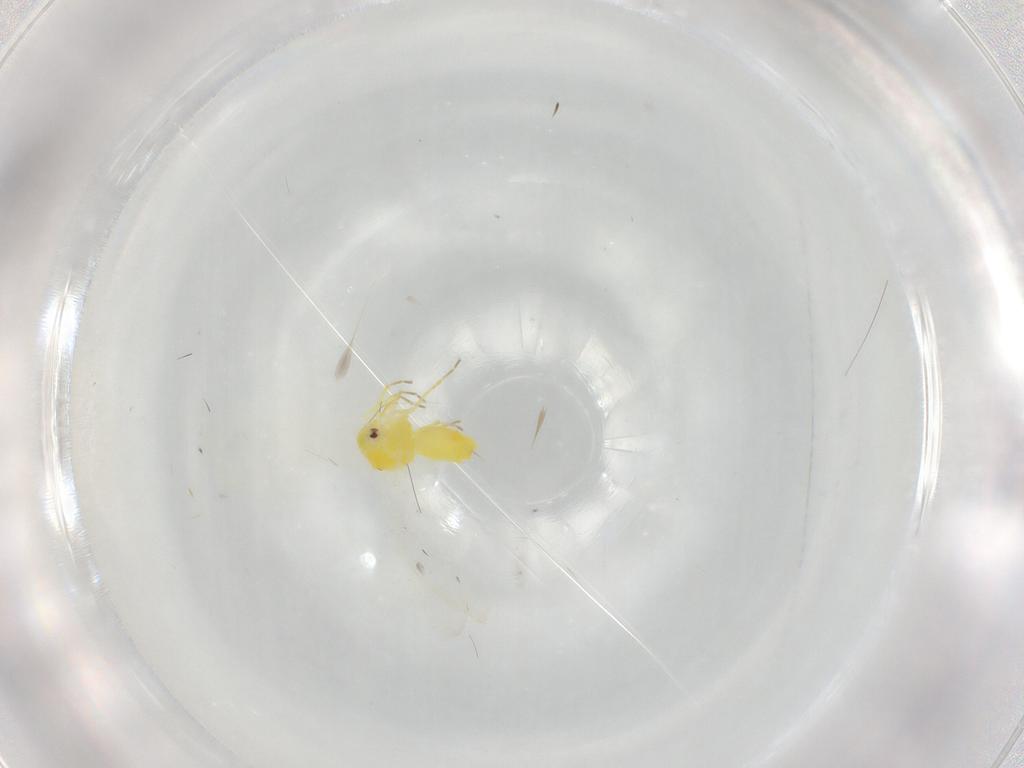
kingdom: Animalia
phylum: Arthropoda
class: Insecta
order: Hemiptera
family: Aleyrodidae
